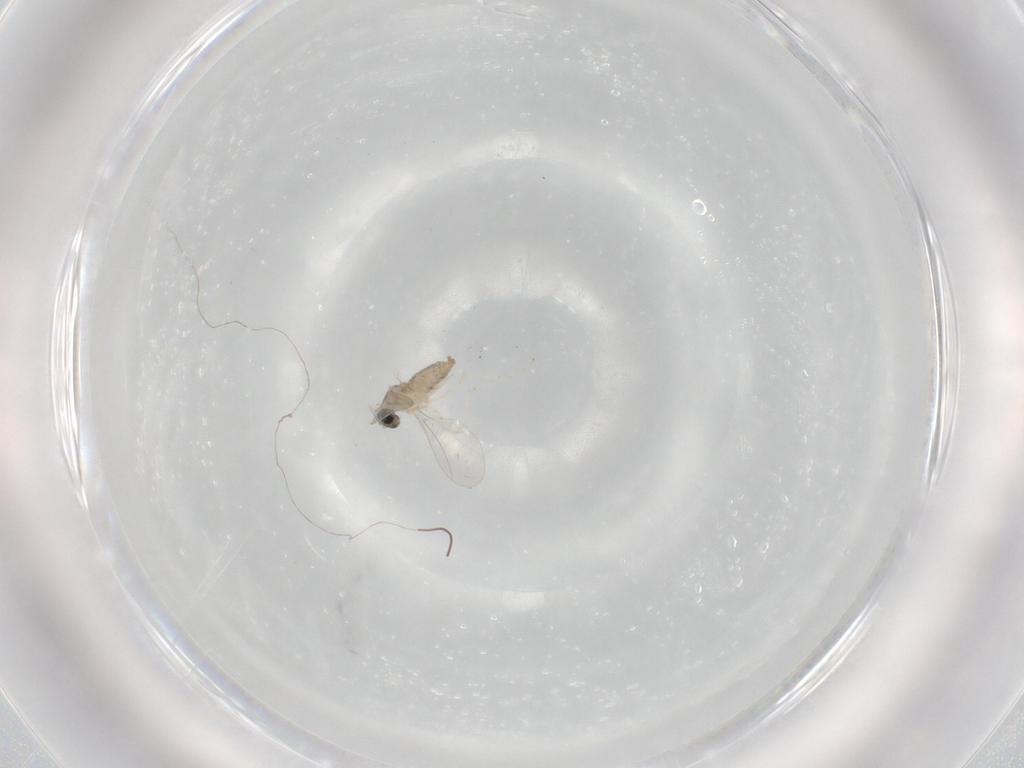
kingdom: Animalia
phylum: Arthropoda
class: Insecta
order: Diptera
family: Cecidomyiidae
